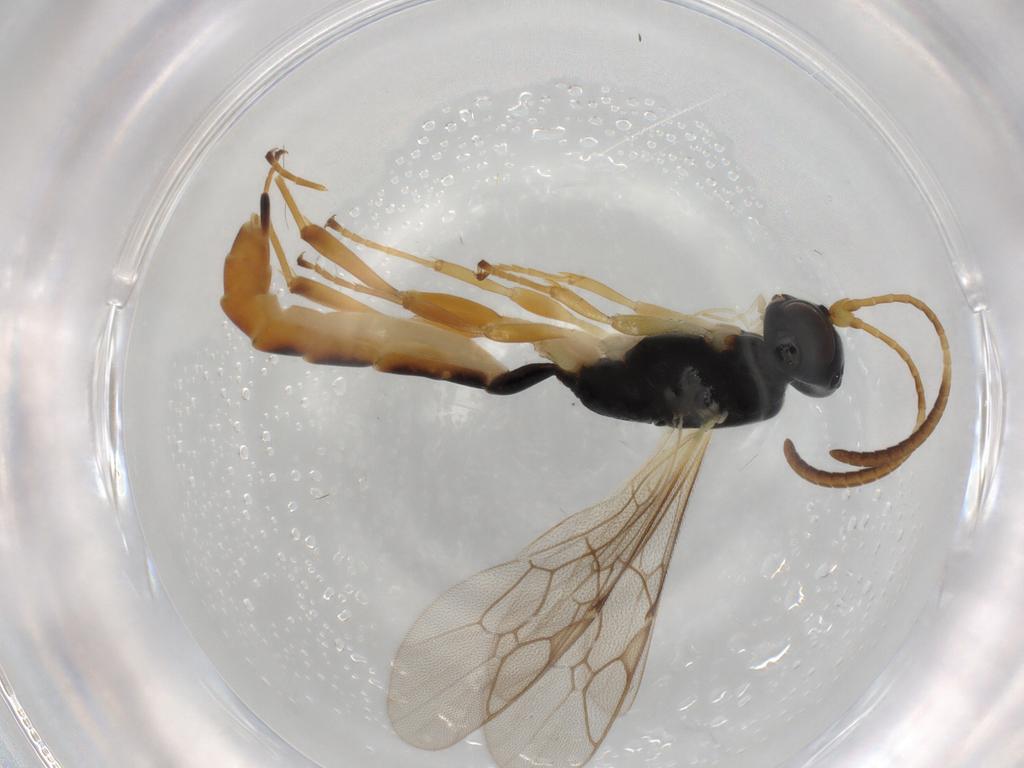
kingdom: Animalia
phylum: Arthropoda
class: Insecta
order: Hymenoptera
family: Ichneumonidae
